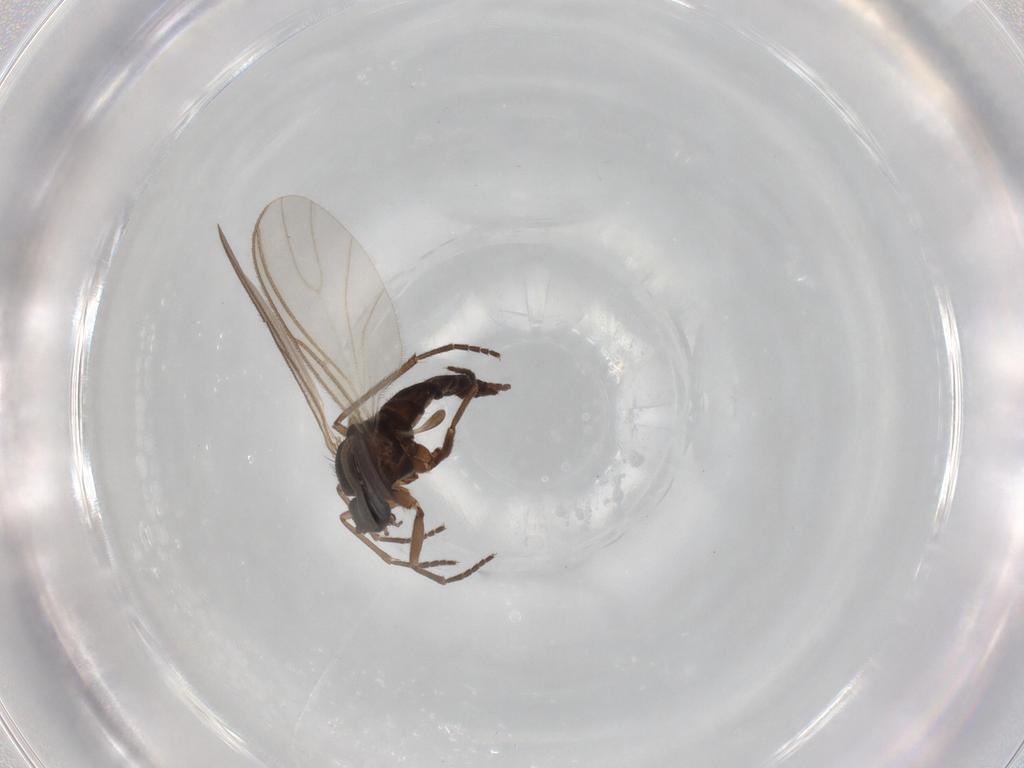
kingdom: Animalia
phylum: Arthropoda
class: Insecta
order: Diptera
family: Sciaridae
